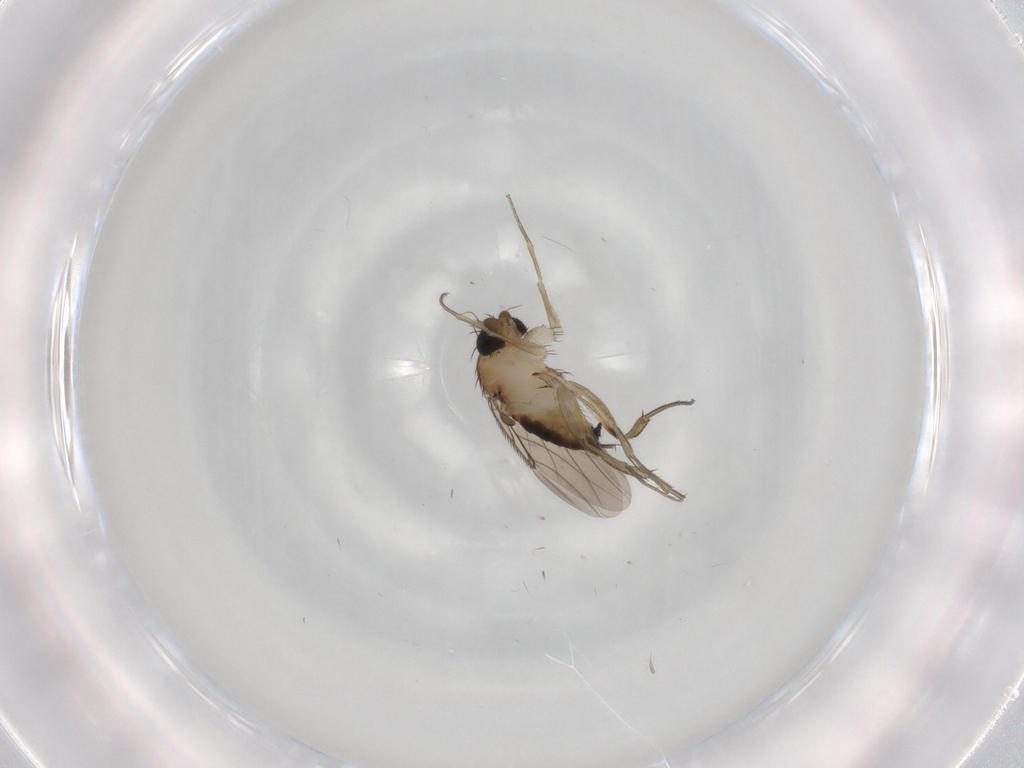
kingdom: Animalia
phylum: Arthropoda
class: Insecta
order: Diptera
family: Phoridae
